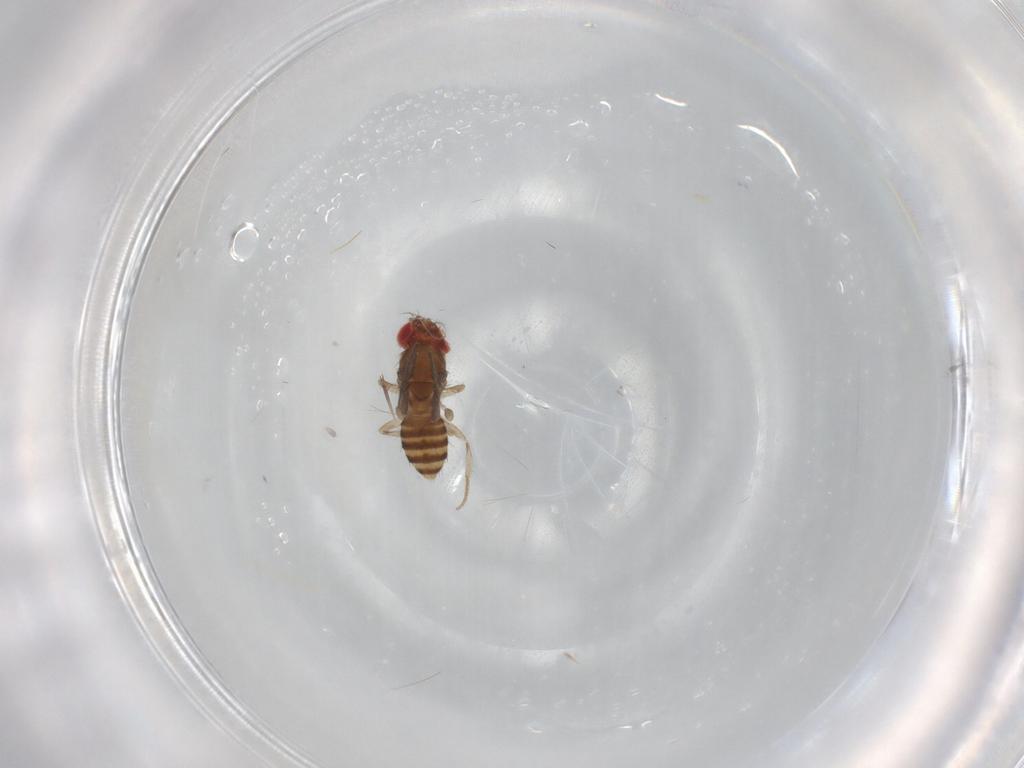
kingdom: Animalia
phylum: Arthropoda
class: Insecta
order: Diptera
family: Drosophilidae
